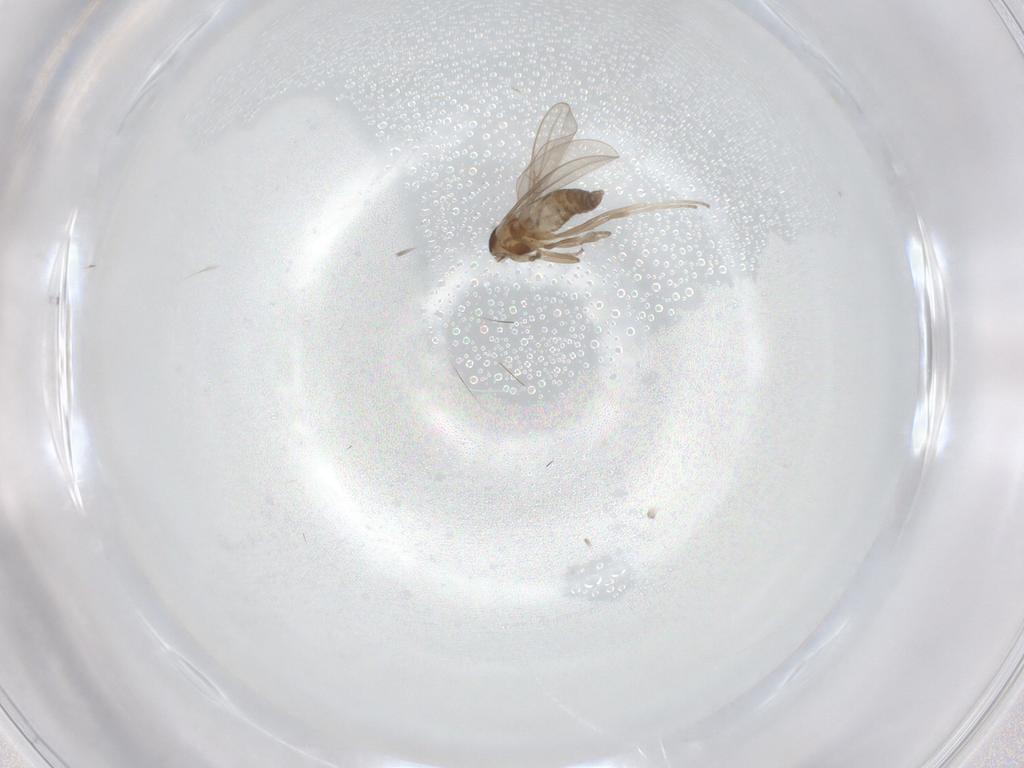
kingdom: Animalia
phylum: Arthropoda
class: Insecta
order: Diptera
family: Cecidomyiidae
